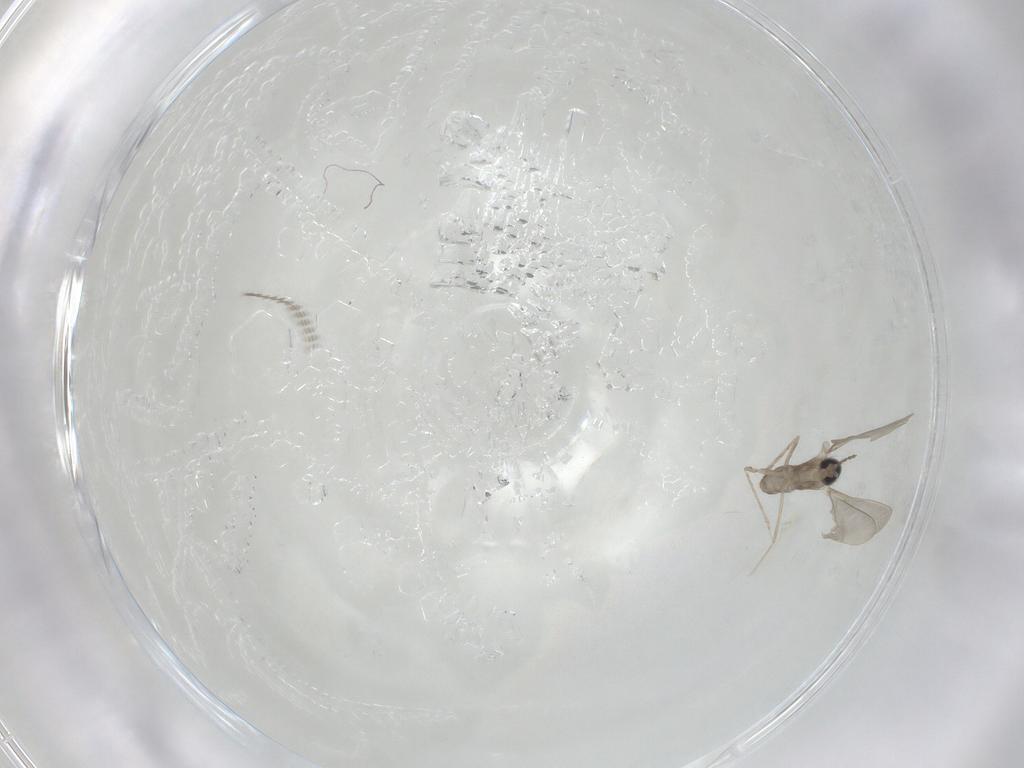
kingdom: Animalia
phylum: Arthropoda
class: Insecta
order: Diptera
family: Cecidomyiidae
